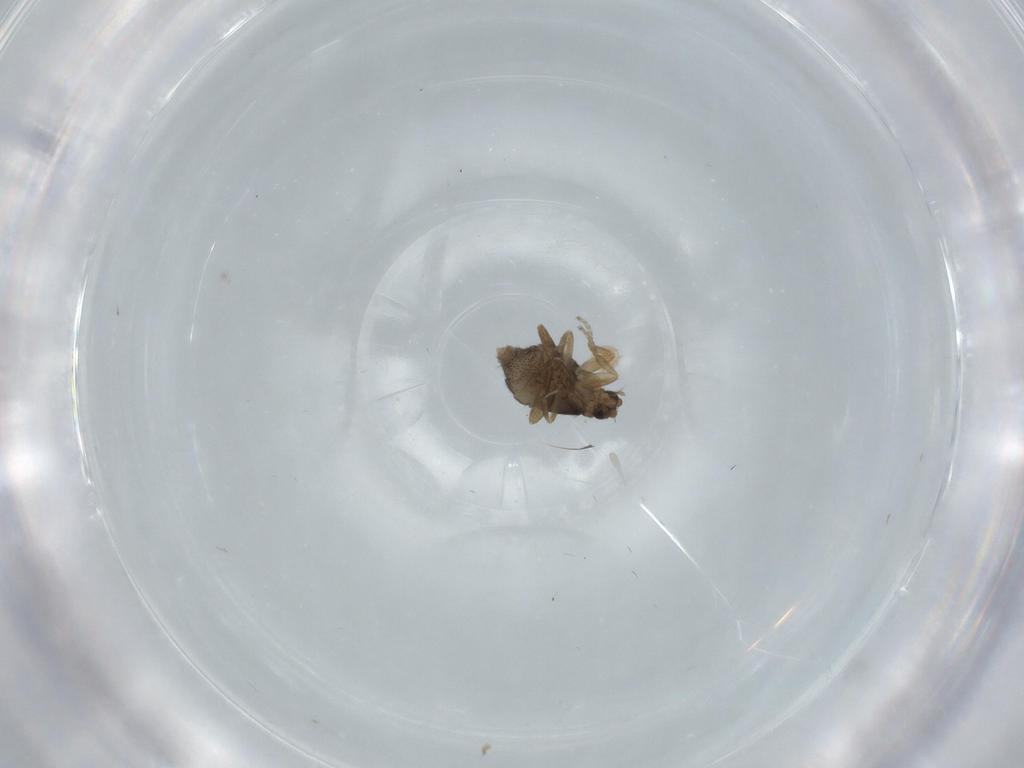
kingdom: Animalia
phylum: Arthropoda
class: Insecta
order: Diptera
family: Phoridae
